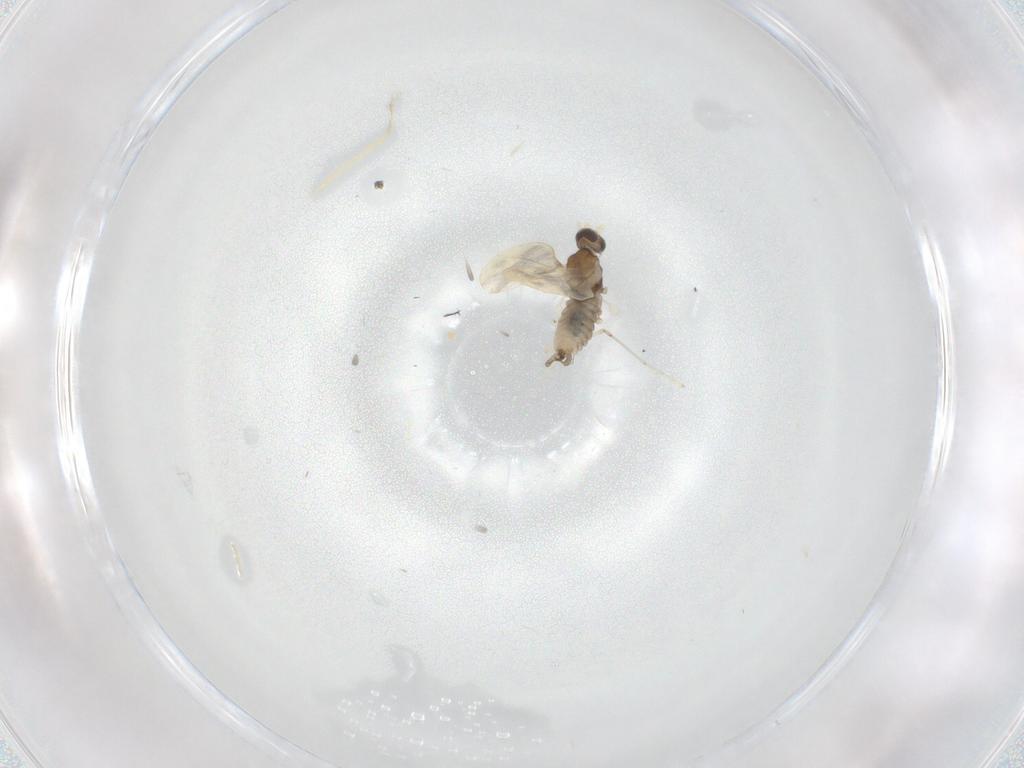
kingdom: Animalia
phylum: Arthropoda
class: Insecta
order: Diptera
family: Cecidomyiidae
